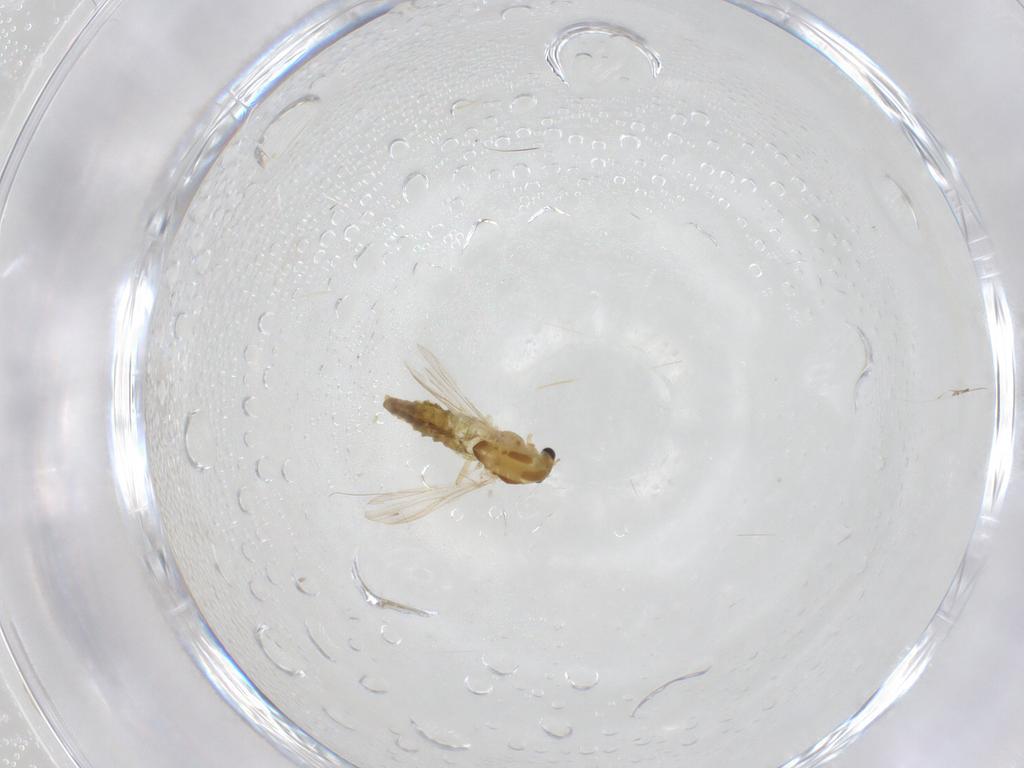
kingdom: Animalia
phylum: Arthropoda
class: Insecta
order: Diptera
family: Chironomidae
